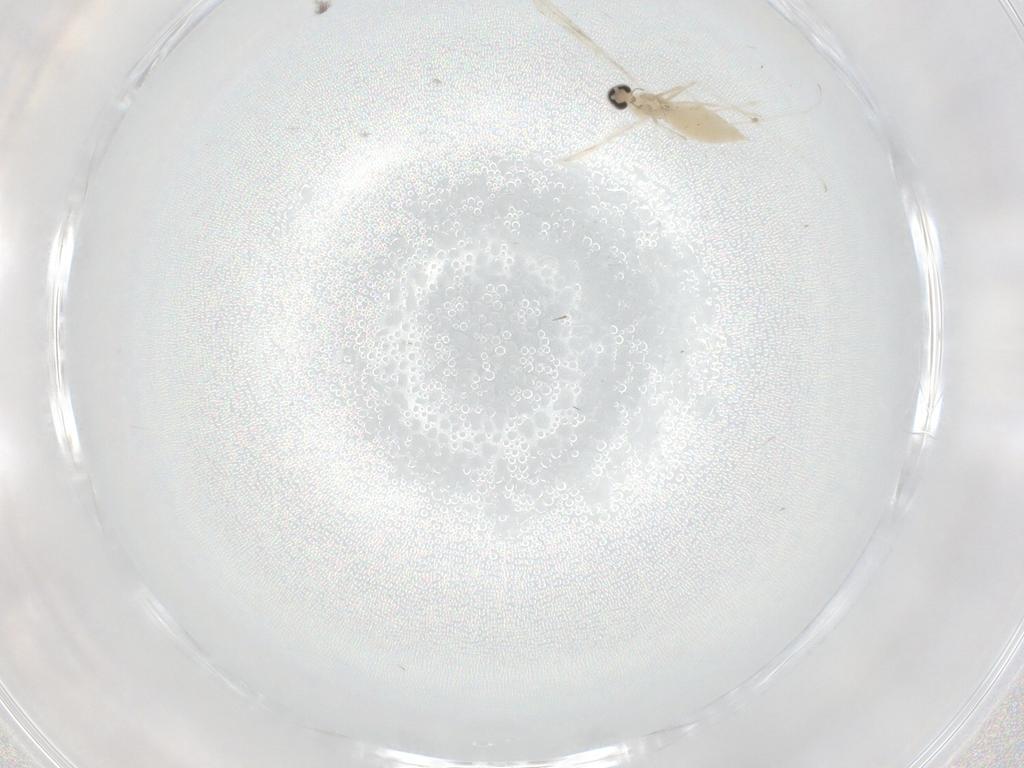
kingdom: Animalia
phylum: Arthropoda
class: Insecta
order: Diptera
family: Cecidomyiidae
